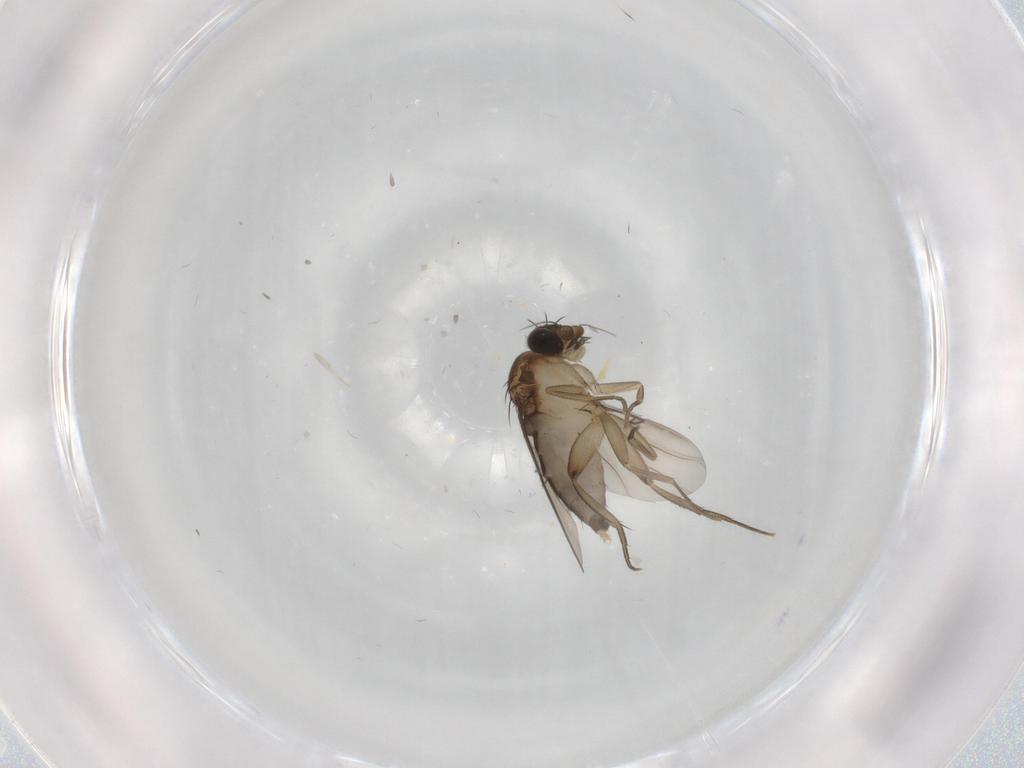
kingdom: Animalia
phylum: Arthropoda
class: Insecta
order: Diptera
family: Phoridae
